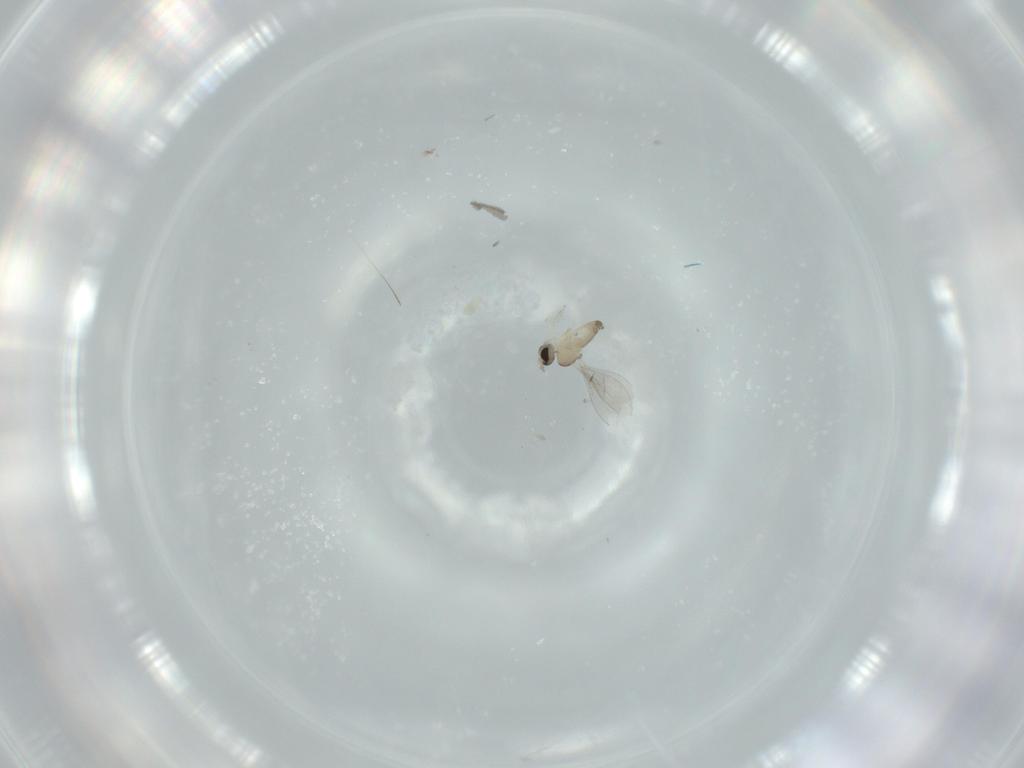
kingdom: Animalia
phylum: Arthropoda
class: Insecta
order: Diptera
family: Cecidomyiidae
